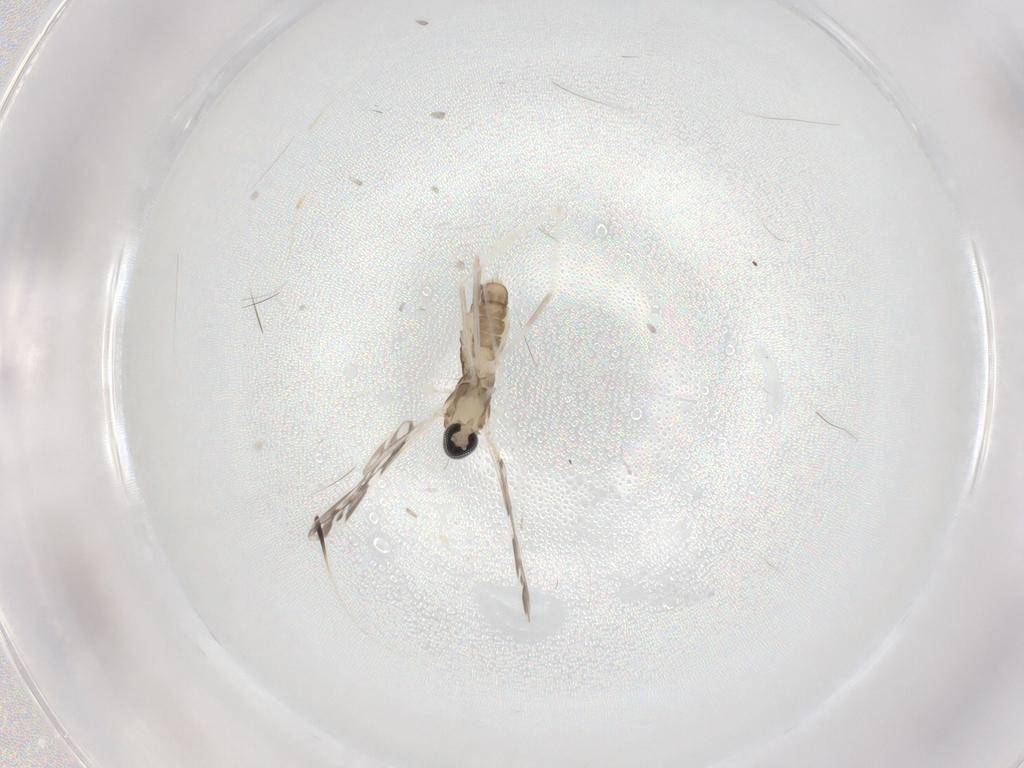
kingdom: Animalia
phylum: Arthropoda
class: Insecta
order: Diptera
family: Cecidomyiidae
